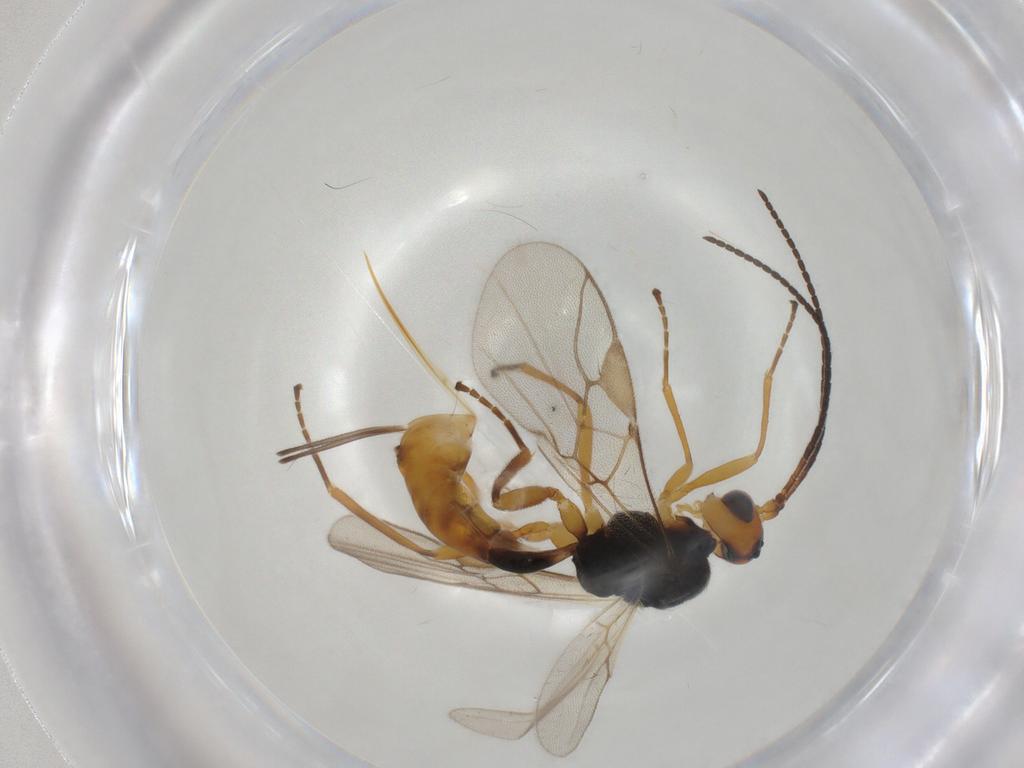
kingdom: Animalia
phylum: Arthropoda
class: Insecta
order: Hymenoptera
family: Braconidae
